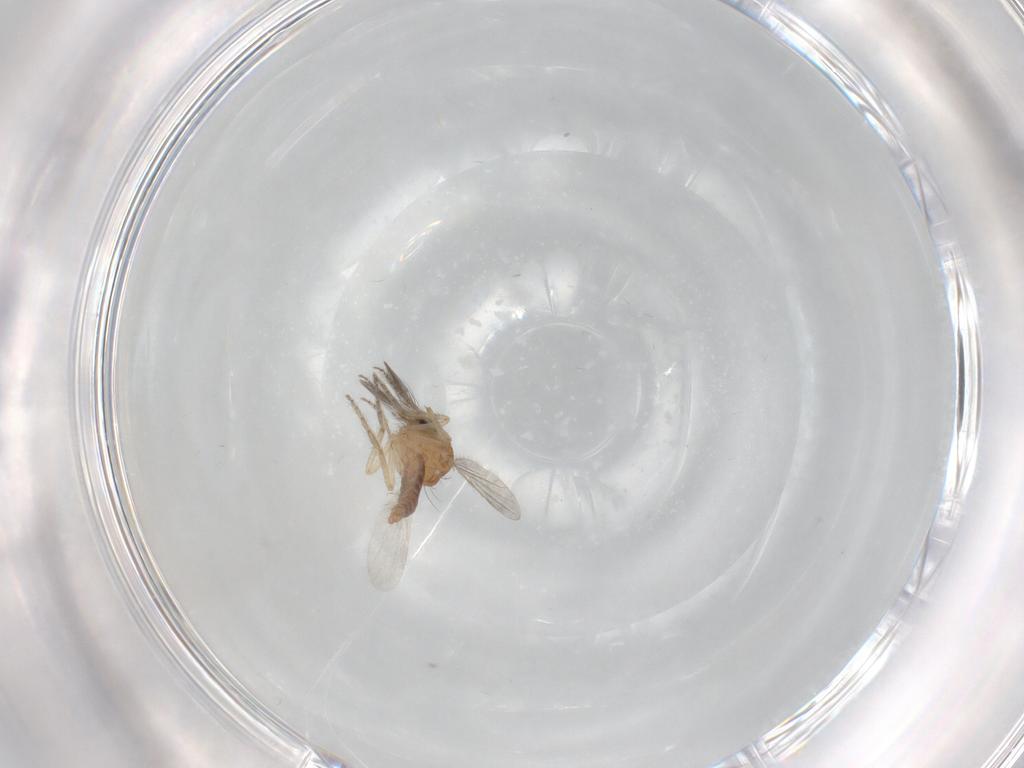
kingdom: Animalia
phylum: Arthropoda
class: Insecta
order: Diptera
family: Ceratopogonidae
